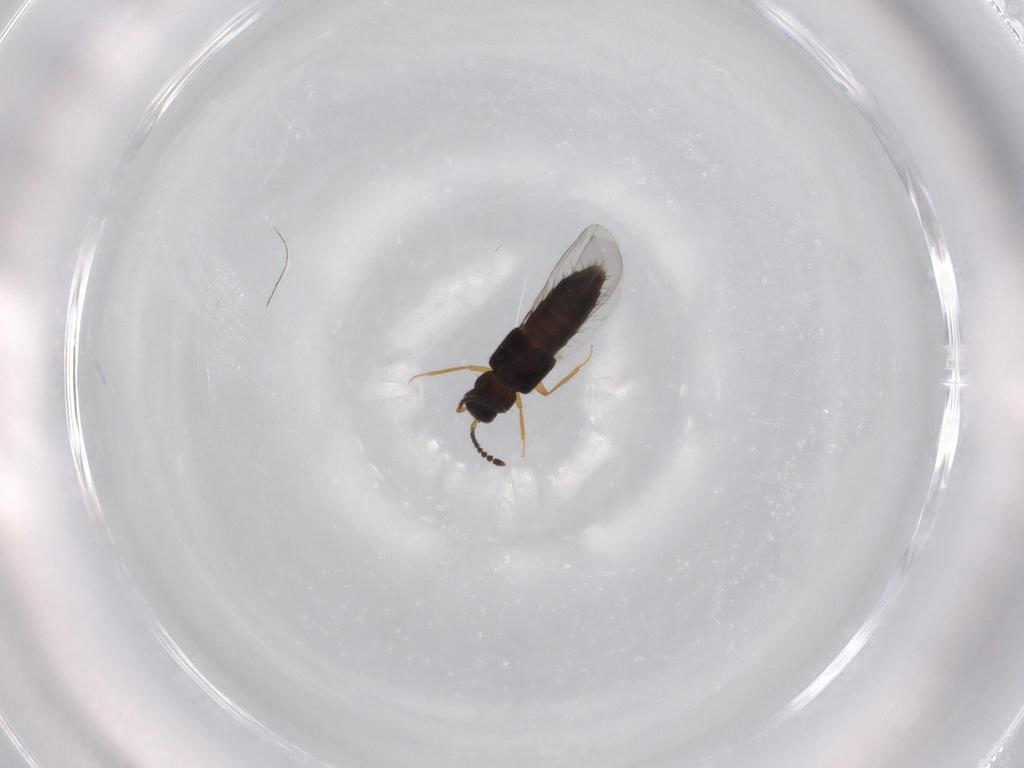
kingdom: Animalia
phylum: Arthropoda
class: Insecta
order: Coleoptera
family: Staphylinidae
